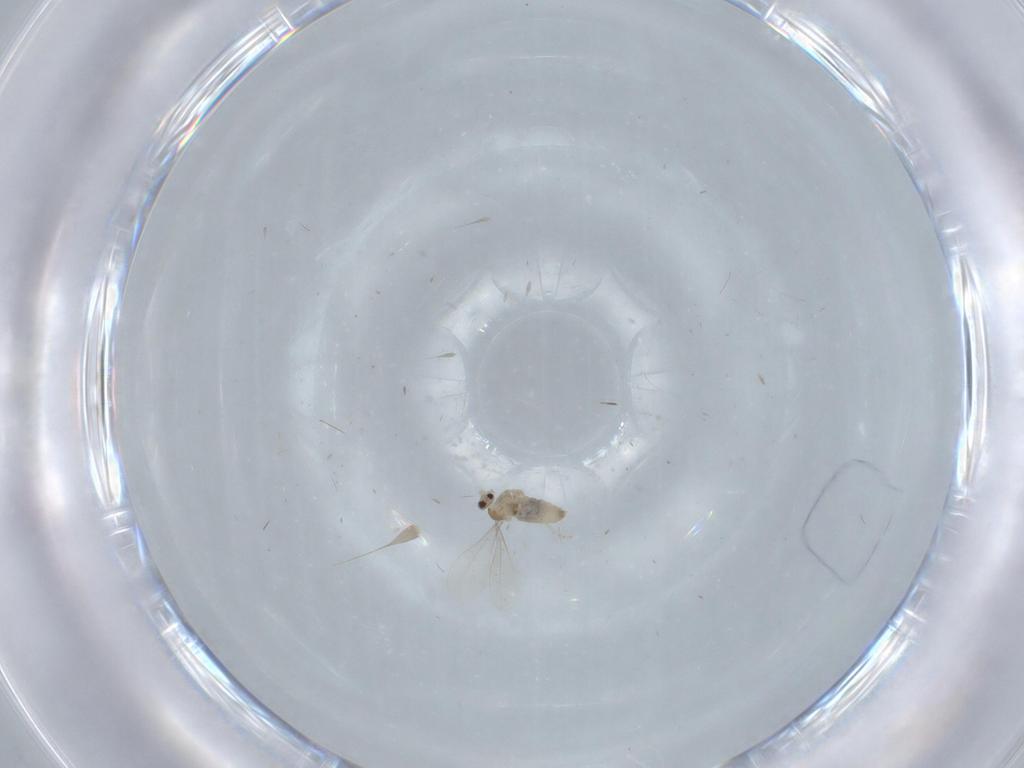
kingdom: Animalia
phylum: Arthropoda
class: Insecta
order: Diptera
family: Cecidomyiidae
